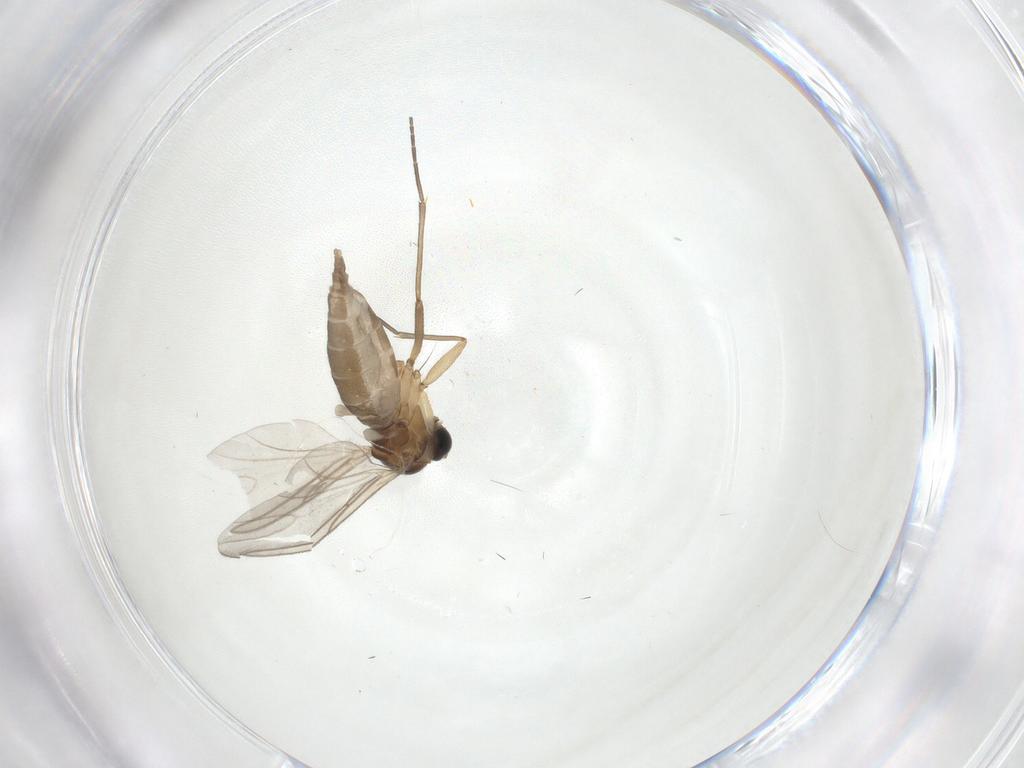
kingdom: Animalia
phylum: Arthropoda
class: Insecta
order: Diptera
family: Sciaridae
